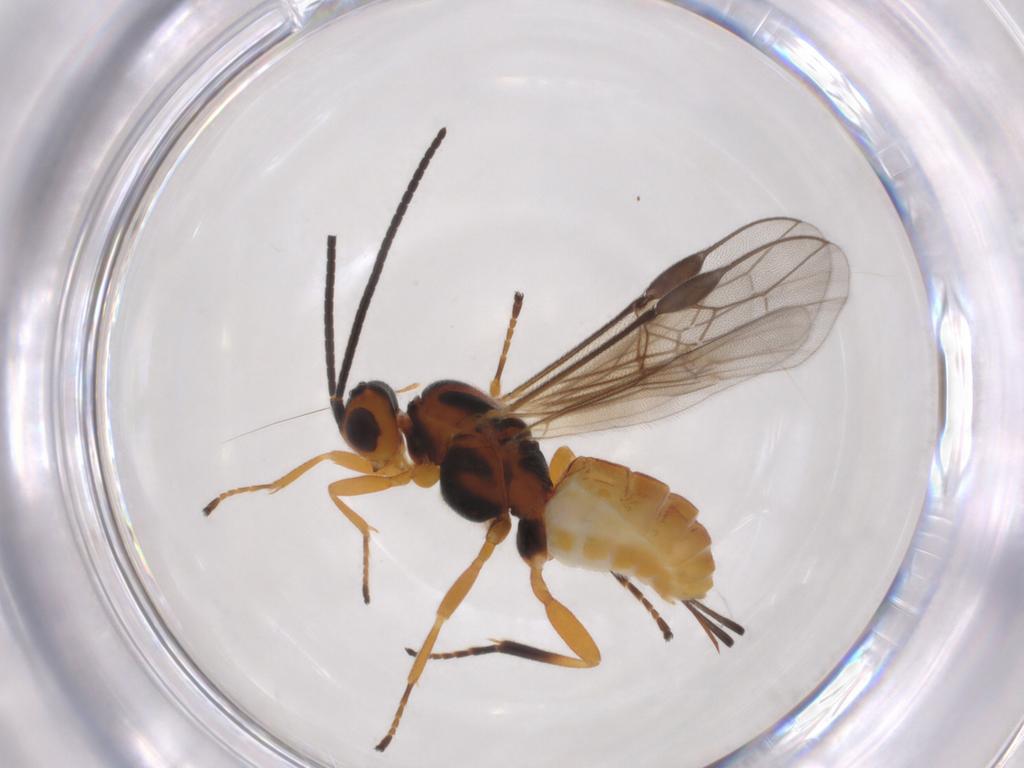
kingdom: Animalia
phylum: Arthropoda
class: Insecta
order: Hymenoptera
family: Braconidae
